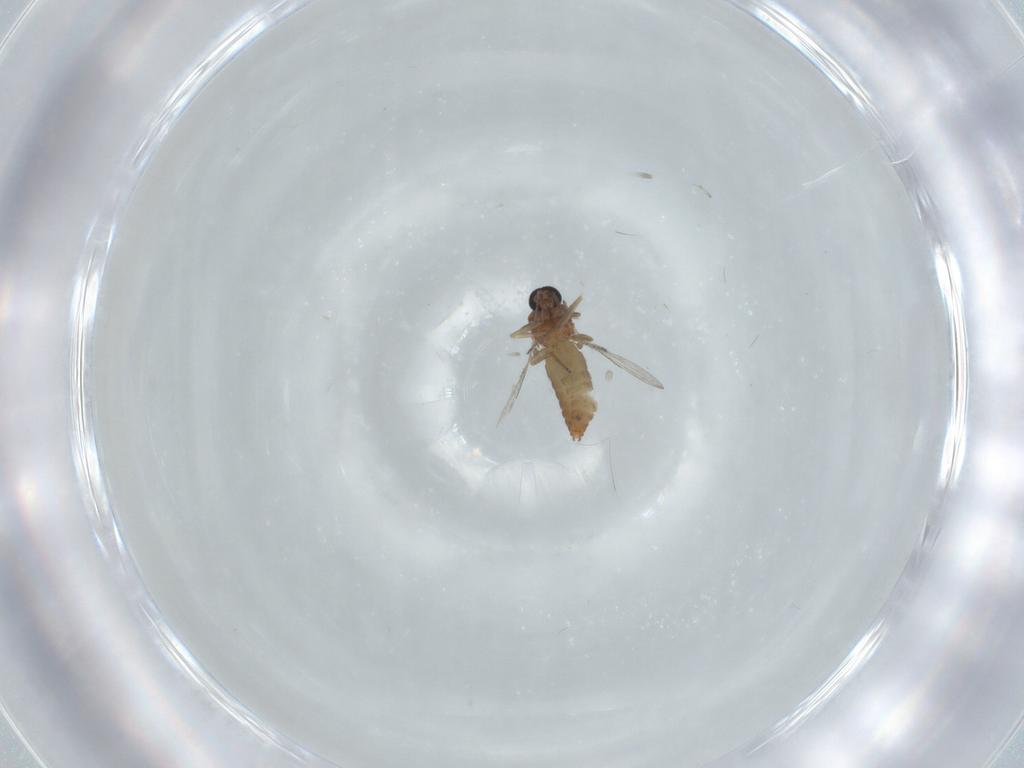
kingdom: Animalia
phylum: Arthropoda
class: Insecta
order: Diptera
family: Ceratopogonidae
